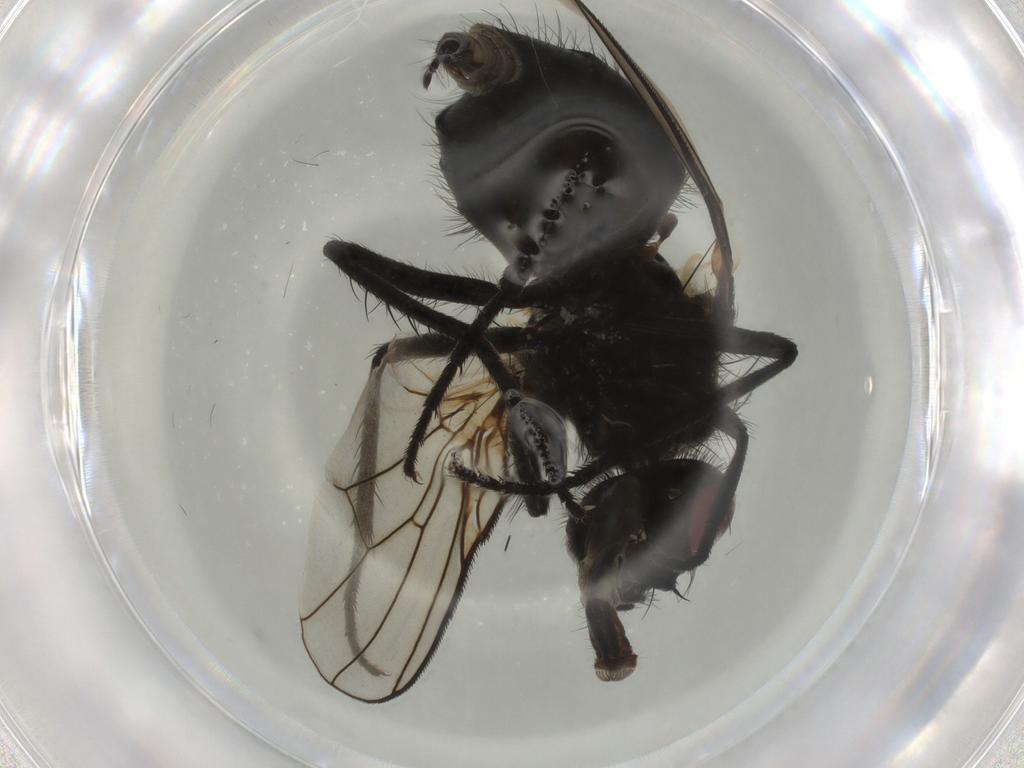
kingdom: Animalia
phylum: Arthropoda
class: Insecta
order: Diptera
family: Muscidae
